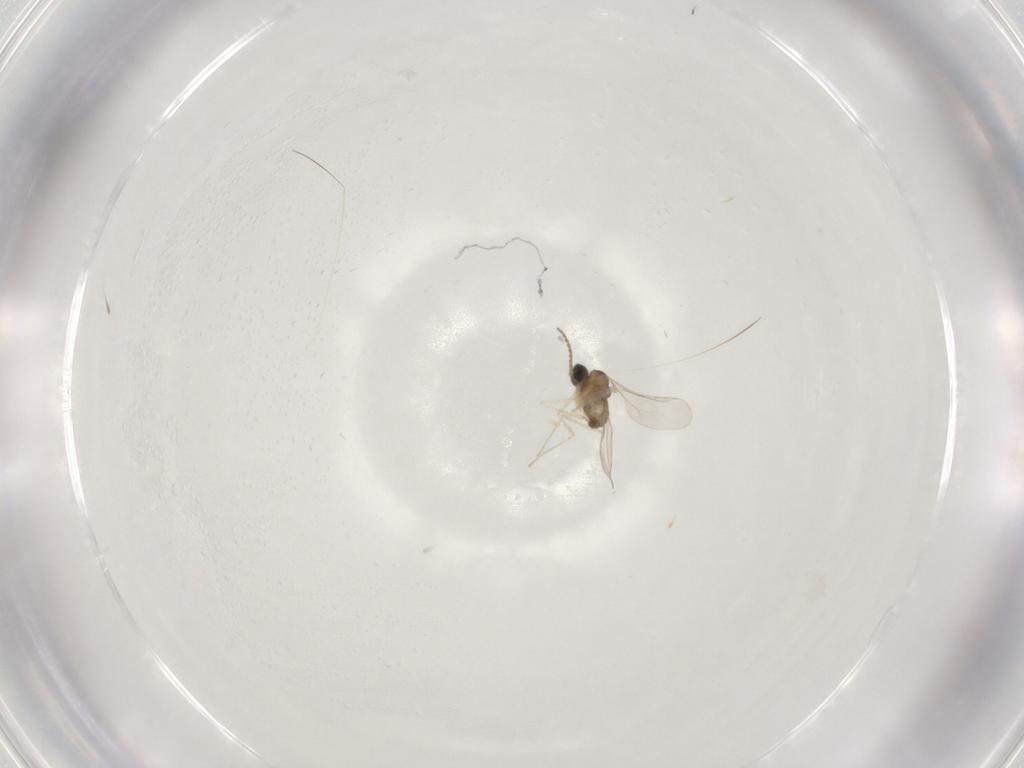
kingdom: Animalia
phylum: Arthropoda
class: Insecta
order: Diptera
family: Cecidomyiidae
